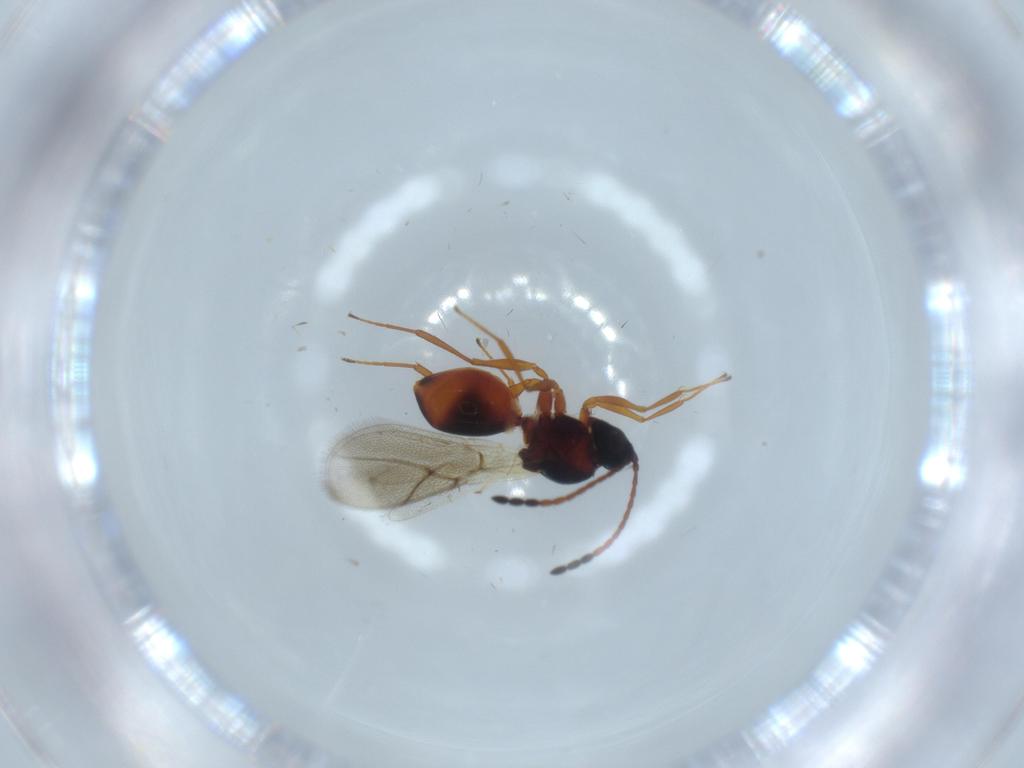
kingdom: Animalia
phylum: Arthropoda
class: Insecta
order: Hymenoptera
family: Figitidae
